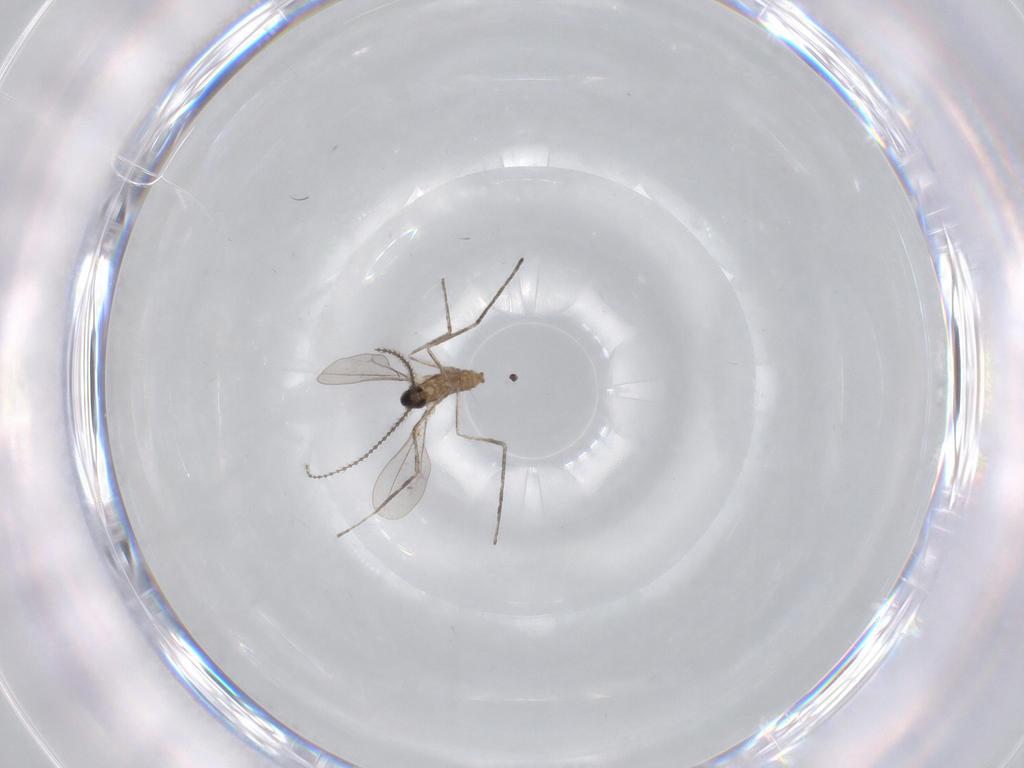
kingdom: Animalia
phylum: Arthropoda
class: Insecta
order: Diptera
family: Cecidomyiidae
